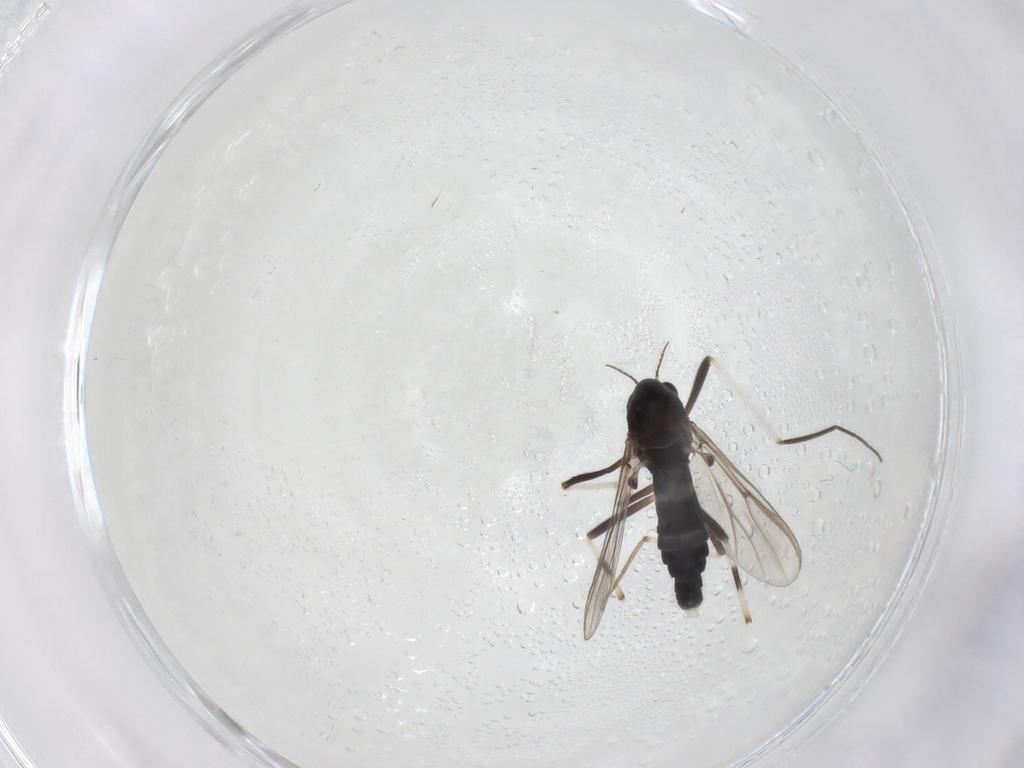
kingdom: Animalia
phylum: Arthropoda
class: Insecta
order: Diptera
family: Chironomidae
